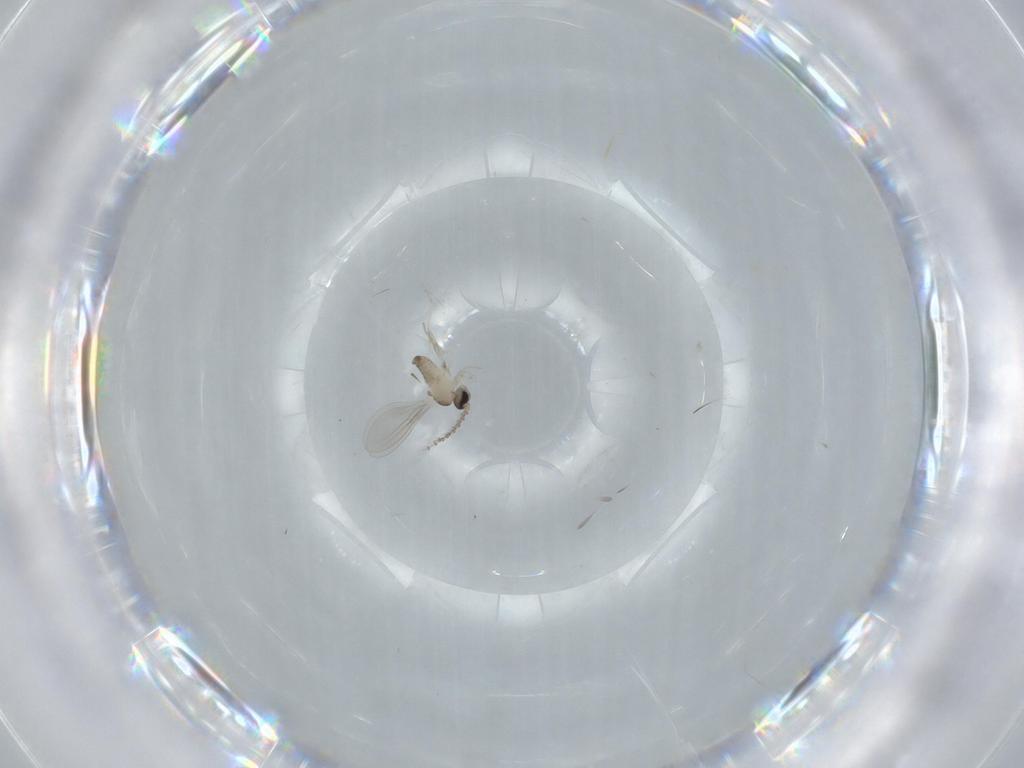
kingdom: Animalia
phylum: Arthropoda
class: Insecta
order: Diptera
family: Cecidomyiidae
